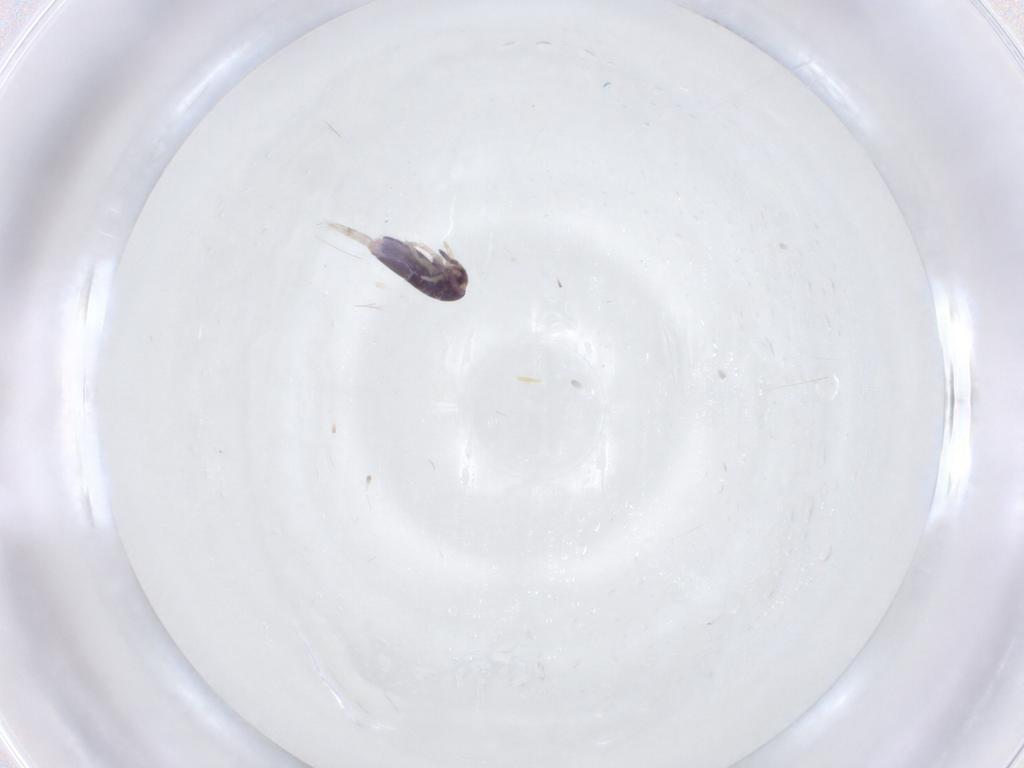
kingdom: Animalia
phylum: Arthropoda
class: Collembola
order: Entomobryomorpha
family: Entomobryidae
